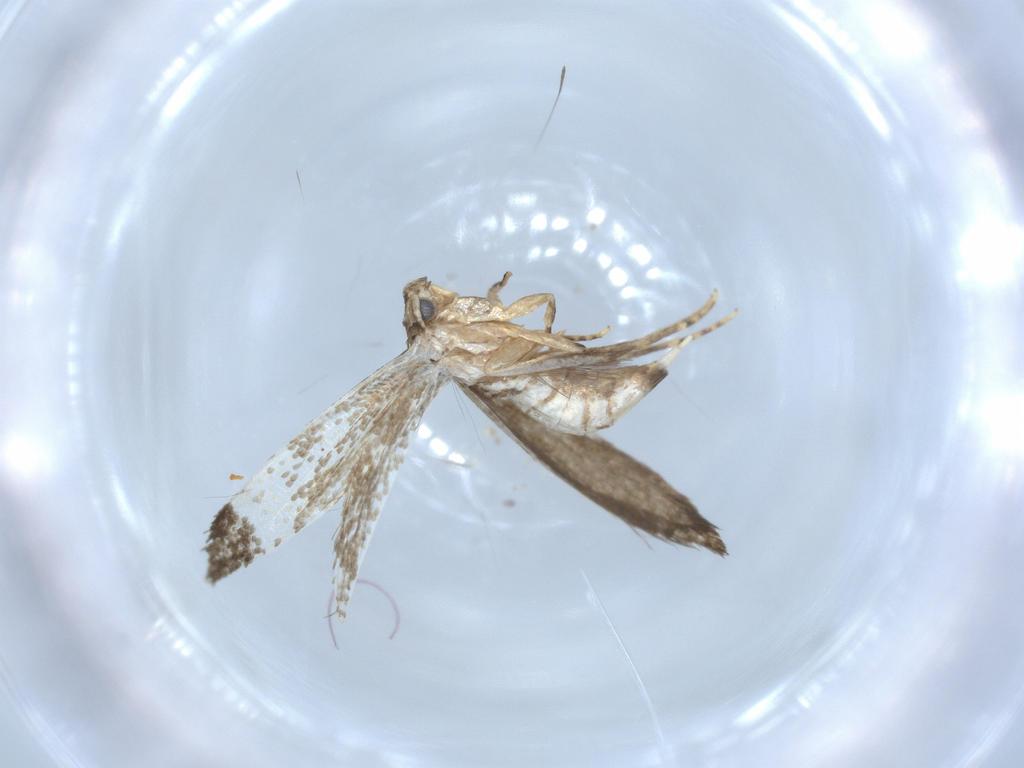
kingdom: Animalia
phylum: Arthropoda
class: Insecta
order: Lepidoptera
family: Tineidae
